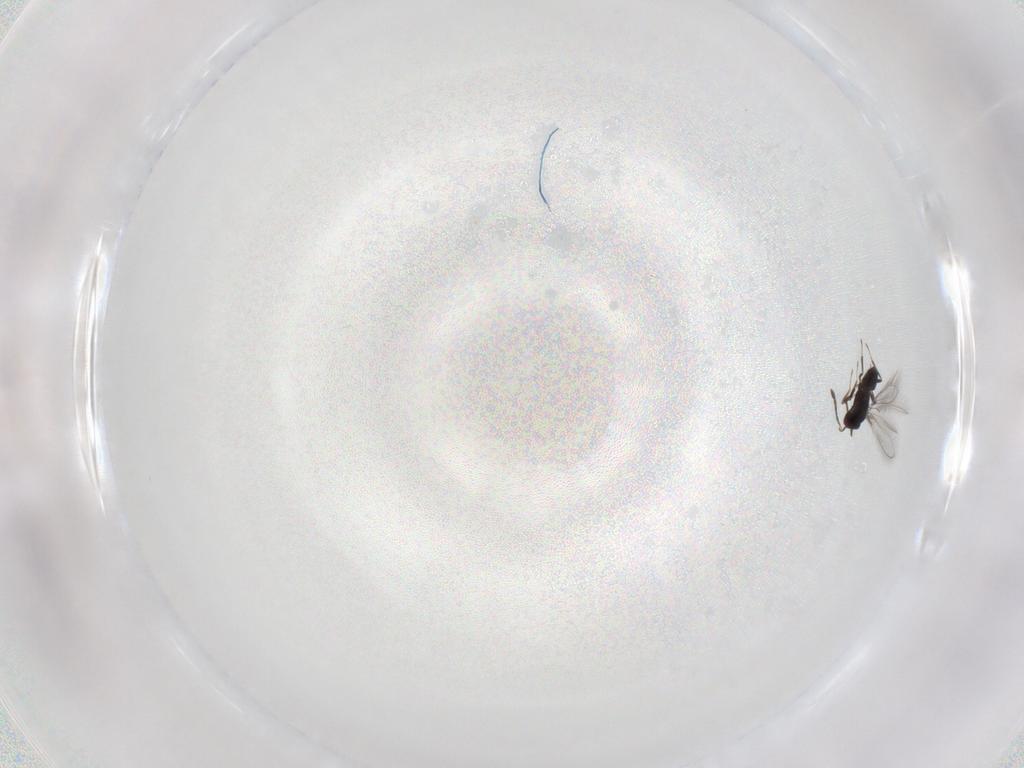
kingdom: Animalia
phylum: Arthropoda
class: Insecta
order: Hymenoptera
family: Mymaridae
